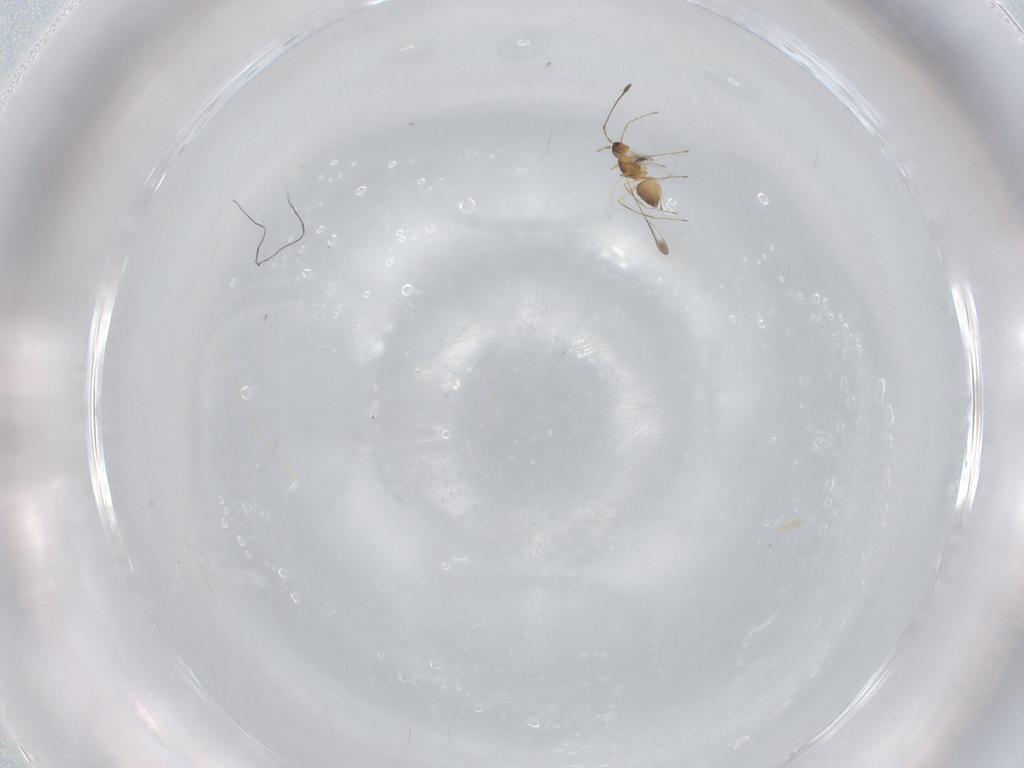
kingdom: Animalia
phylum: Arthropoda
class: Insecta
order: Hymenoptera
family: Mymaridae
